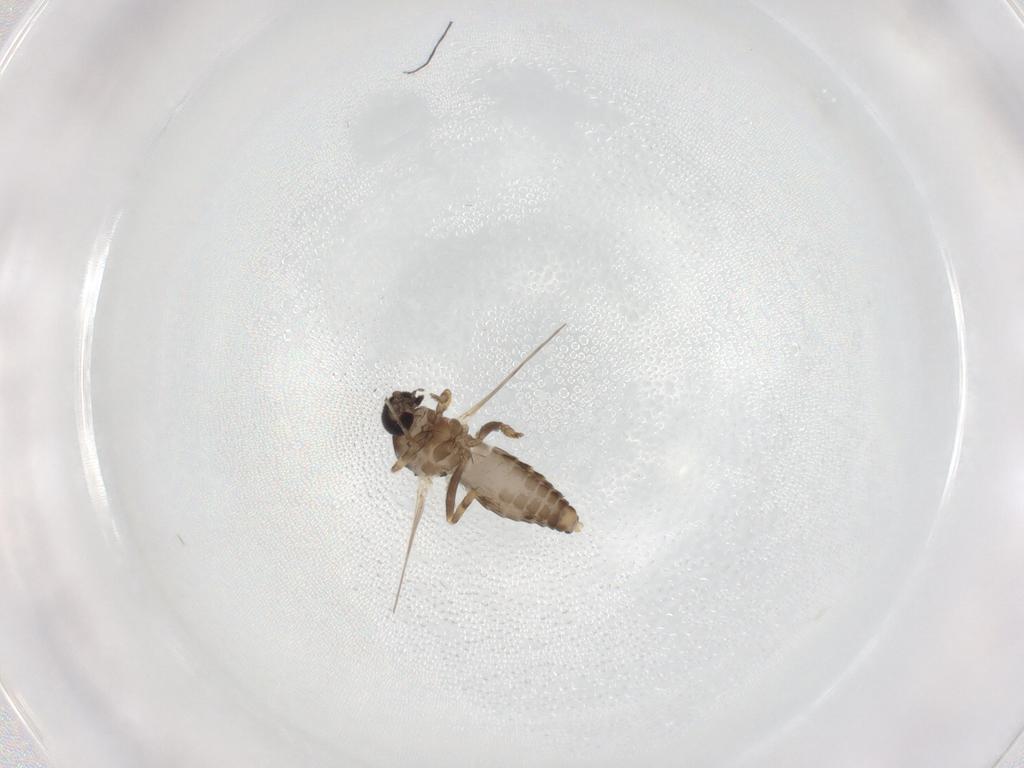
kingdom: Animalia
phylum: Arthropoda
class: Insecta
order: Diptera
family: Ceratopogonidae
